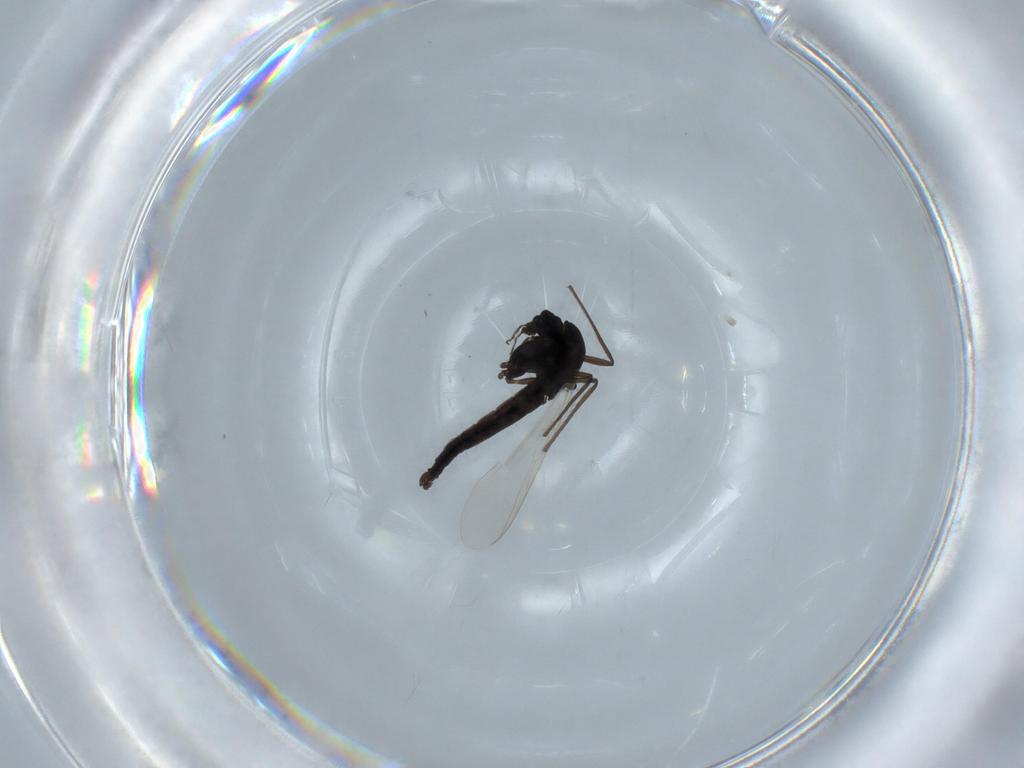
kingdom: Animalia
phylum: Arthropoda
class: Insecta
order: Diptera
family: Chironomidae
